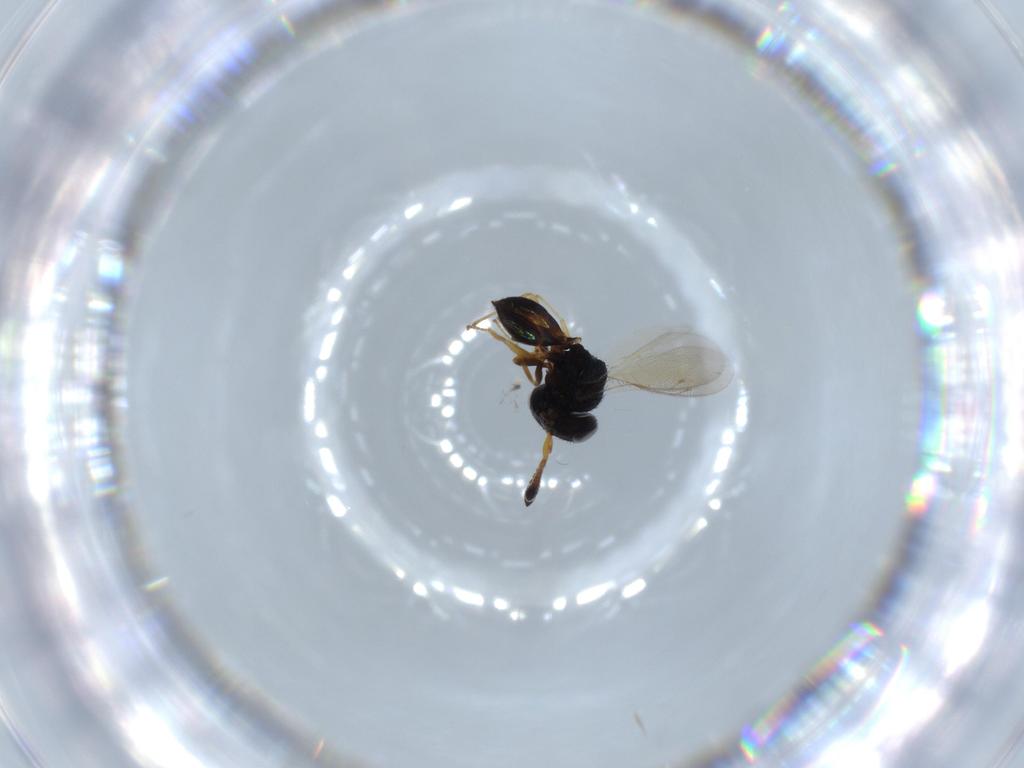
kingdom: Animalia
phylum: Arthropoda
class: Insecta
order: Hymenoptera
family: Pteromalidae
